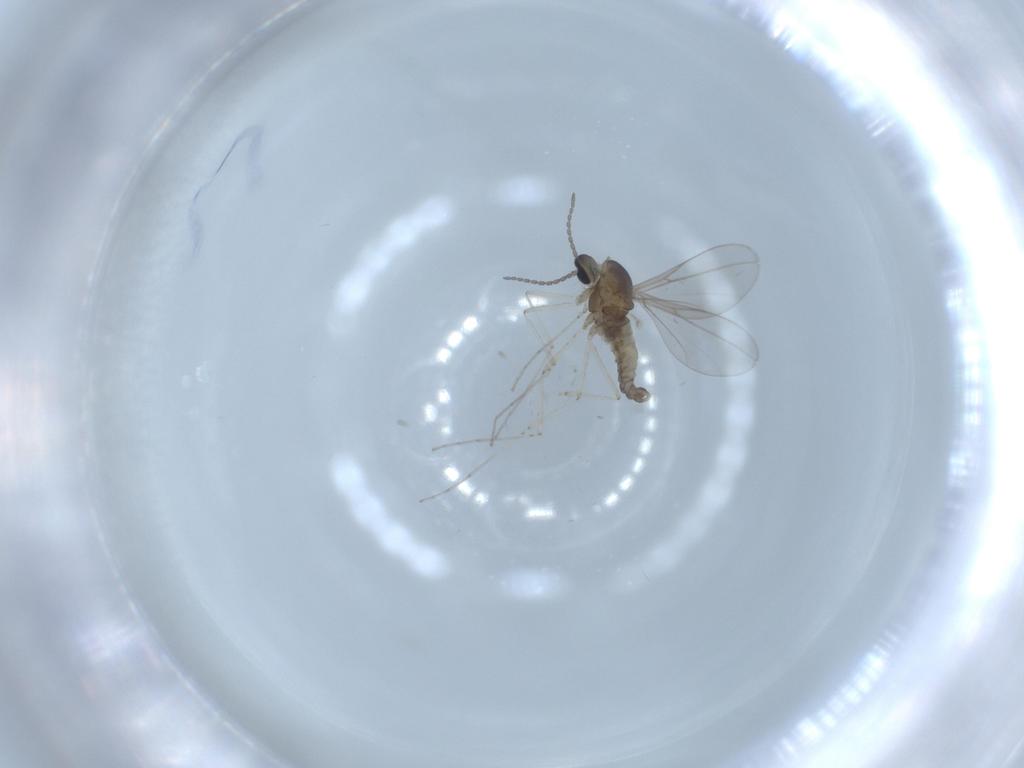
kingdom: Animalia
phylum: Arthropoda
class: Insecta
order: Diptera
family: Cecidomyiidae
